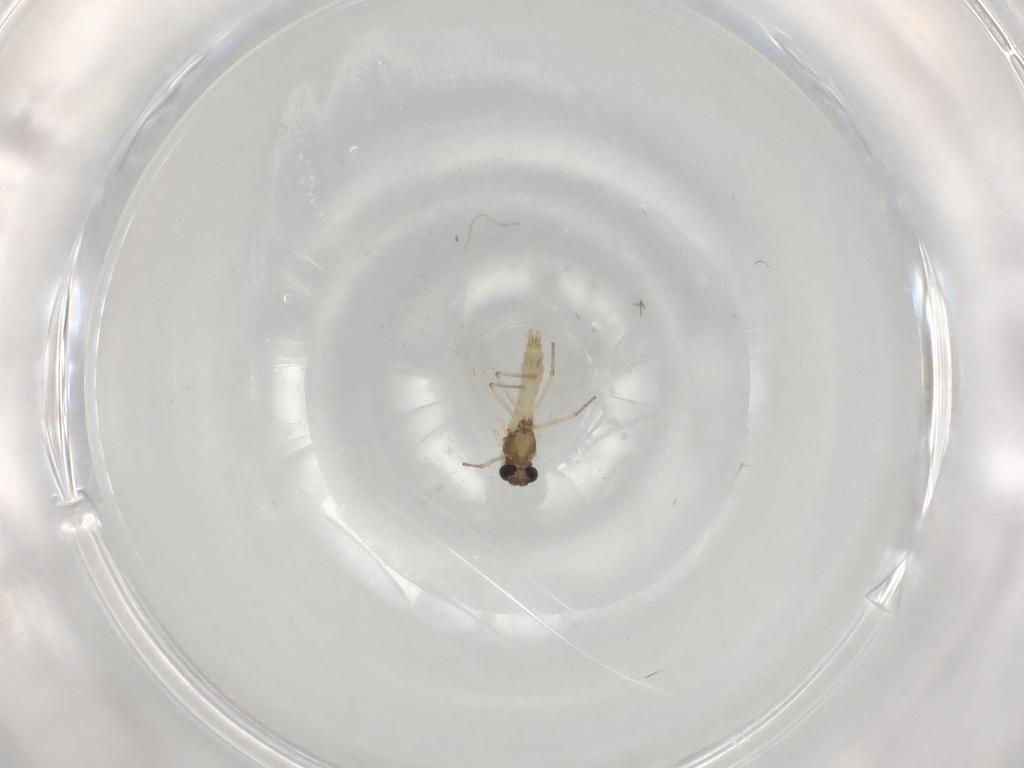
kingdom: Animalia
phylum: Arthropoda
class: Insecta
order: Diptera
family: Chironomidae
